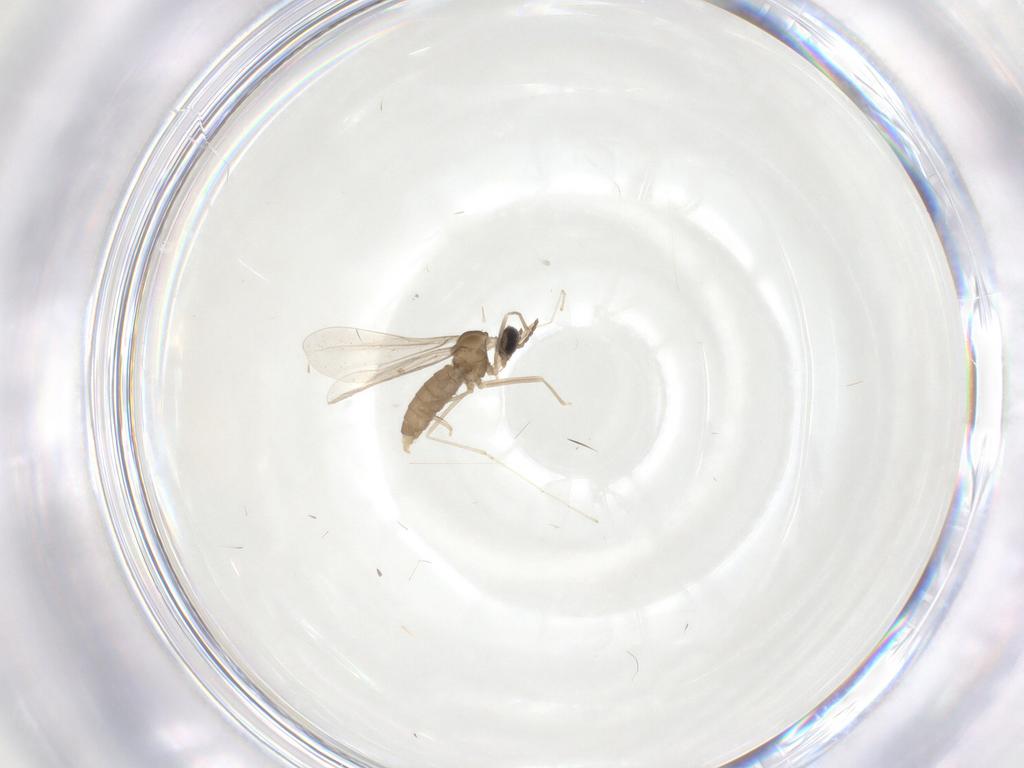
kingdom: Animalia
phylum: Arthropoda
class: Insecta
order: Diptera
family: Cecidomyiidae
